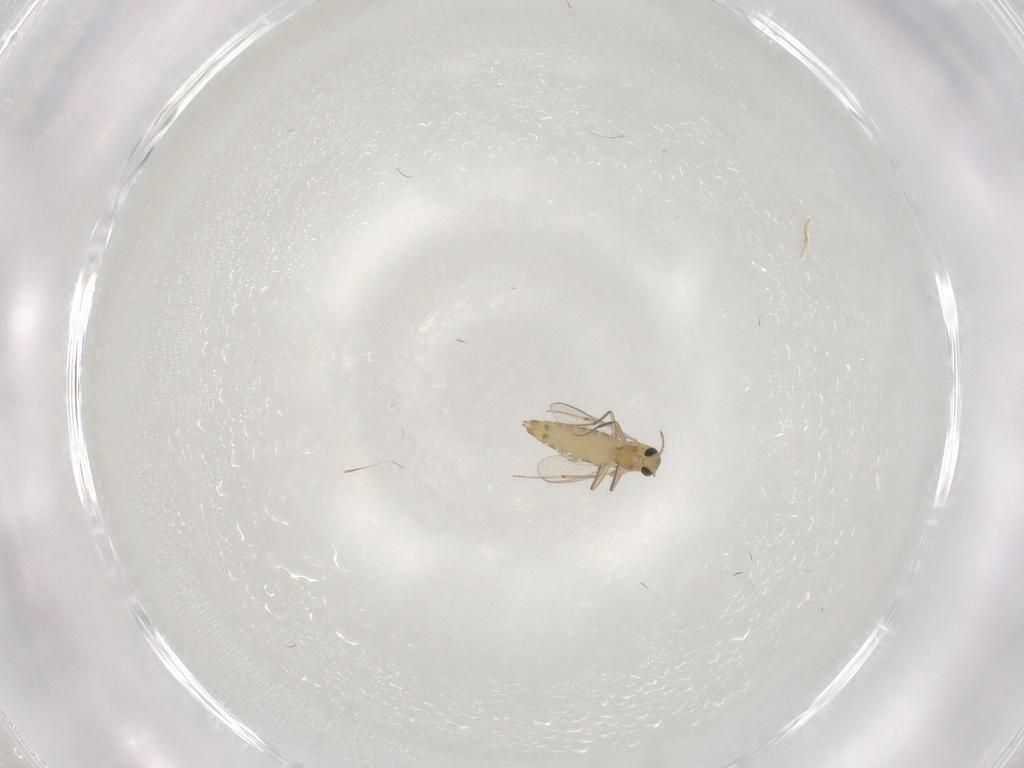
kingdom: Animalia
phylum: Arthropoda
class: Insecta
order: Diptera
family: Chironomidae
